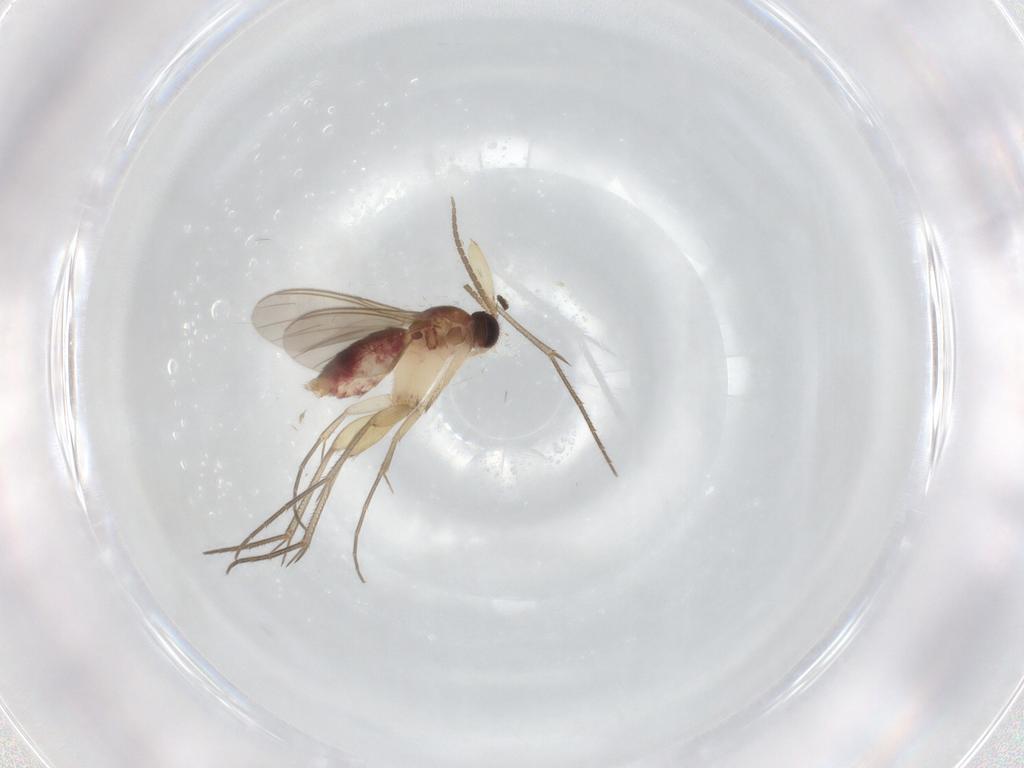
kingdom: Animalia
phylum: Arthropoda
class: Insecta
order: Diptera
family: Mycetophilidae
